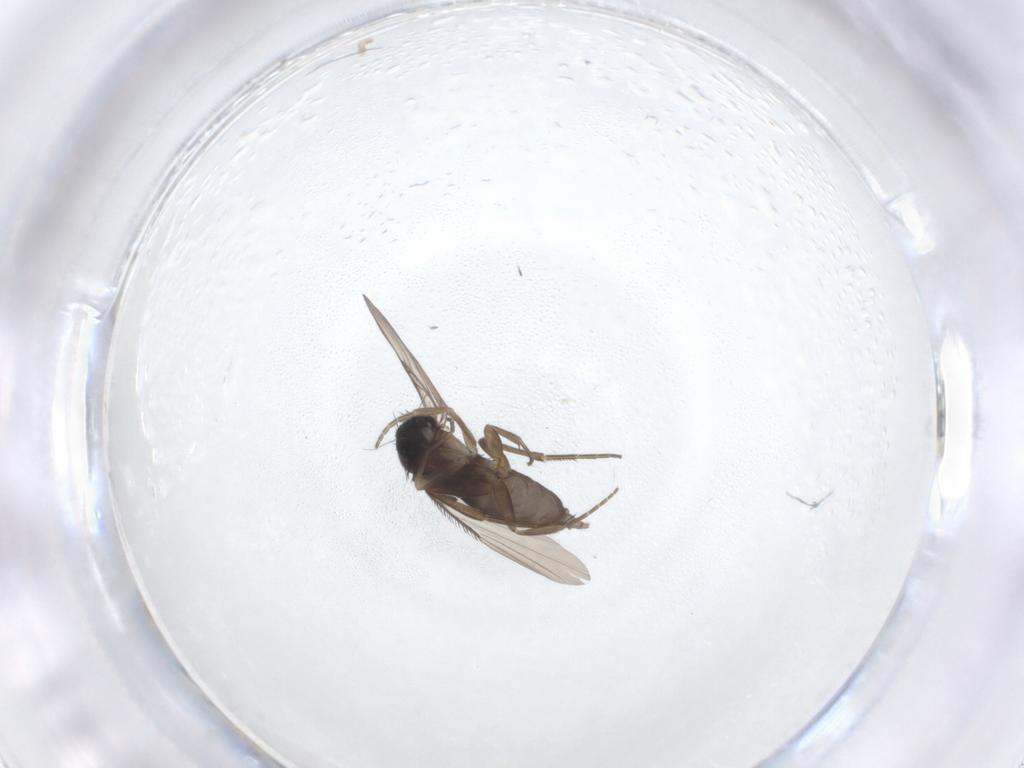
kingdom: Animalia
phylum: Arthropoda
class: Insecta
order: Diptera
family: Phoridae
